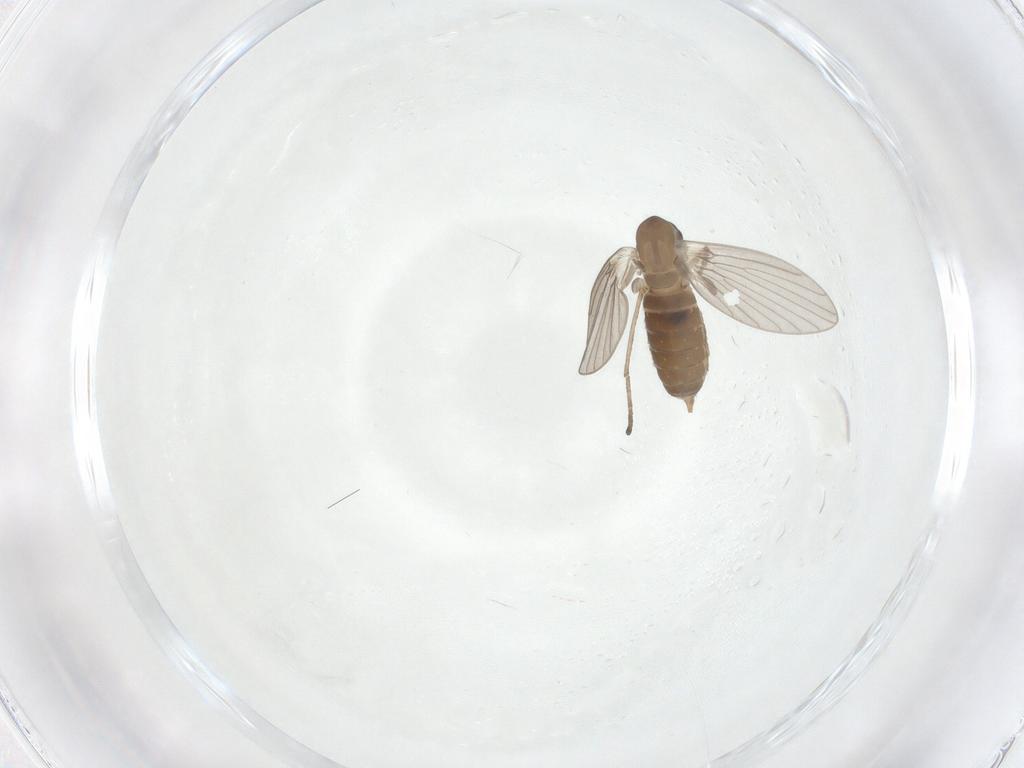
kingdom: Animalia
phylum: Arthropoda
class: Insecta
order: Diptera
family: Chironomidae
